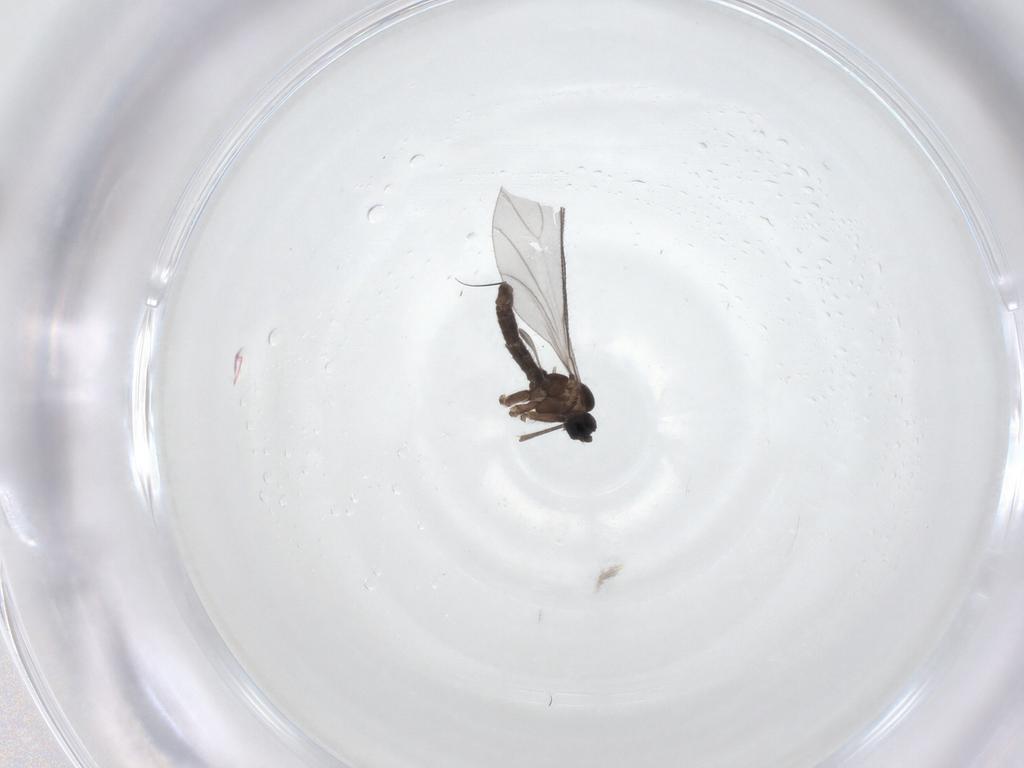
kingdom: Animalia
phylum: Arthropoda
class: Insecta
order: Diptera
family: Sciaridae
